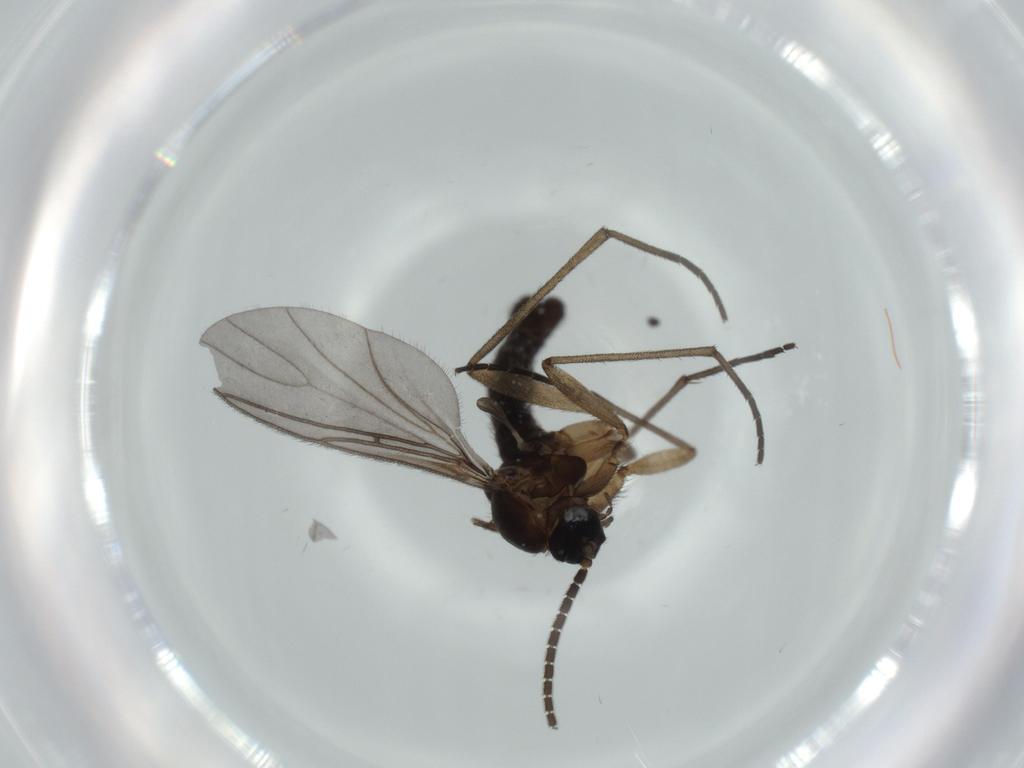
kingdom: Animalia
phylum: Arthropoda
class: Insecta
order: Diptera
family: Sciaridae
